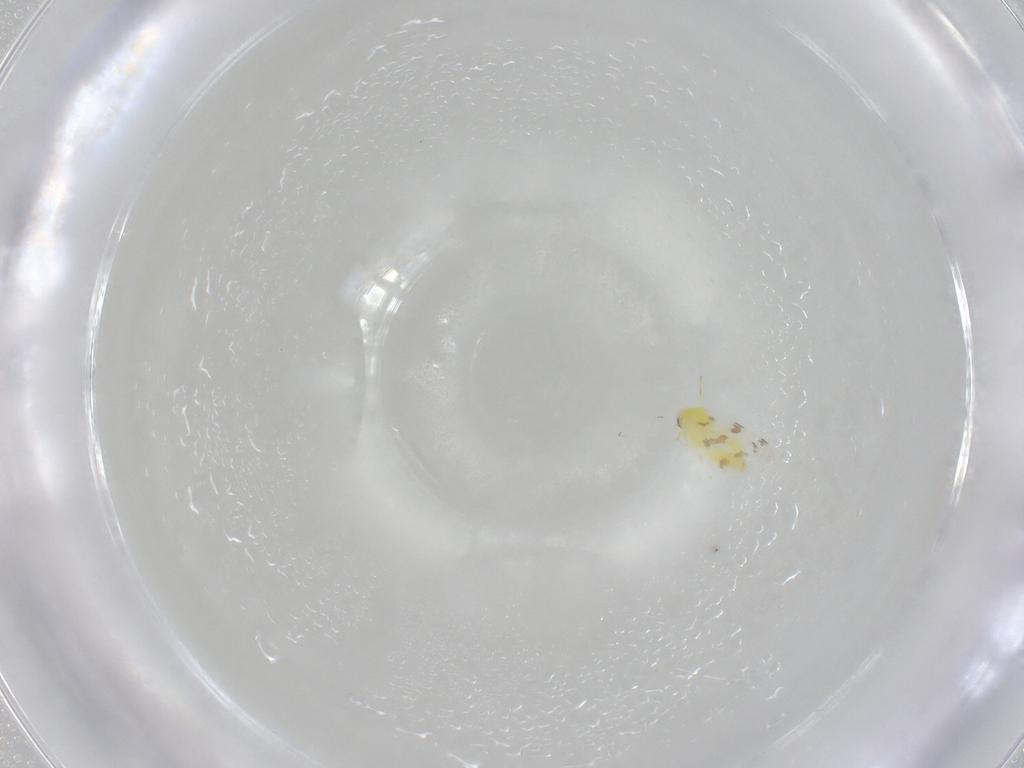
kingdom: Animalia
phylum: Arthropoda
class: Insecta
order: Hemiptera
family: Aleyrodidae
